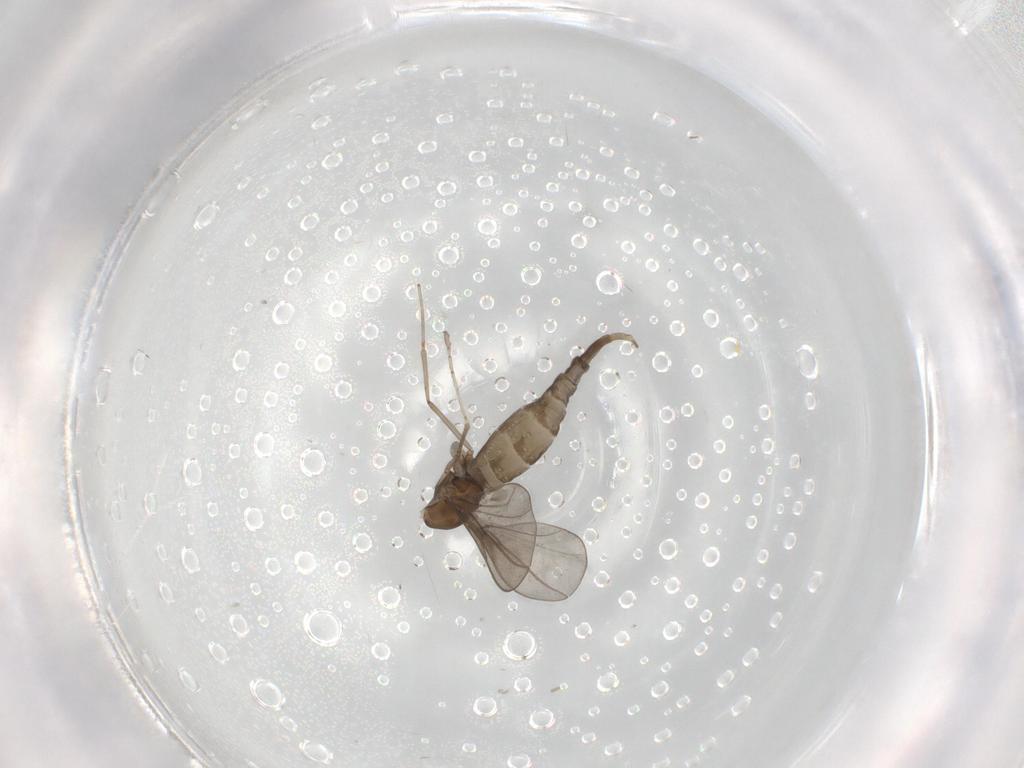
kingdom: Animalia
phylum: Arthropoda
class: Insecta
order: Diptera
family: Cecidomyiidae
